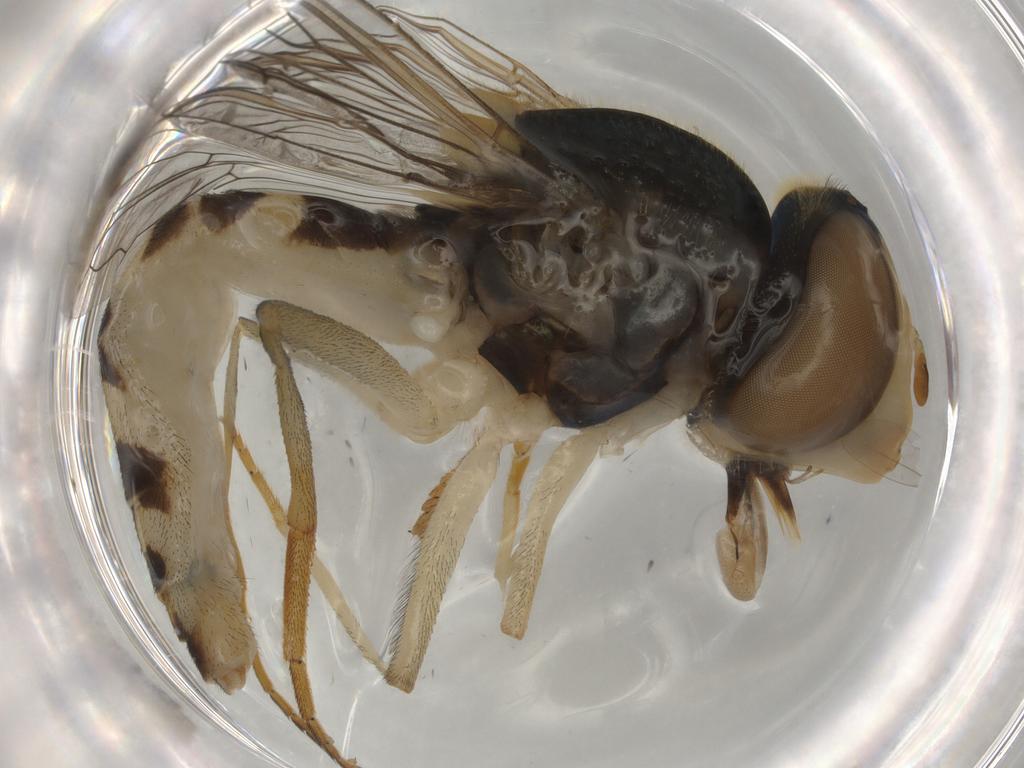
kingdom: Animalia
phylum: Arthropoda
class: Insecta
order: Diptera
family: Syrphidae
